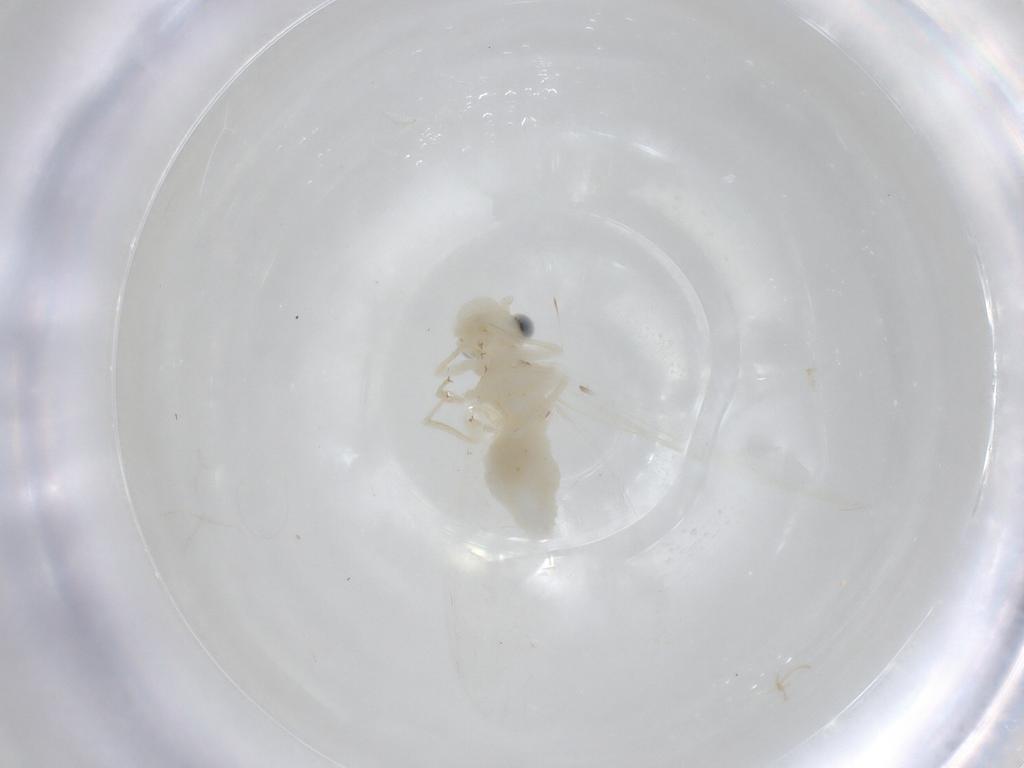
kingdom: Animalia
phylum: Arthropoda
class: Insecta
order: Psocodea
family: Caeciliusidae
